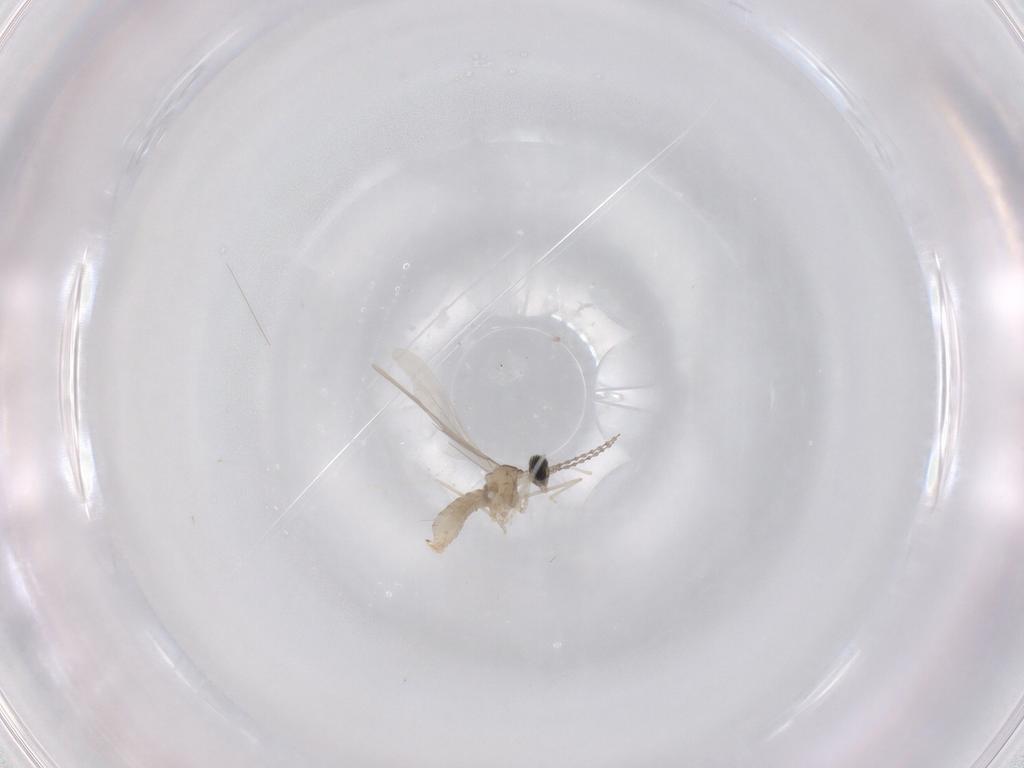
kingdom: Animalia
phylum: Arthropoda
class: Insecta
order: Diptera
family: Cecidomyiidae
